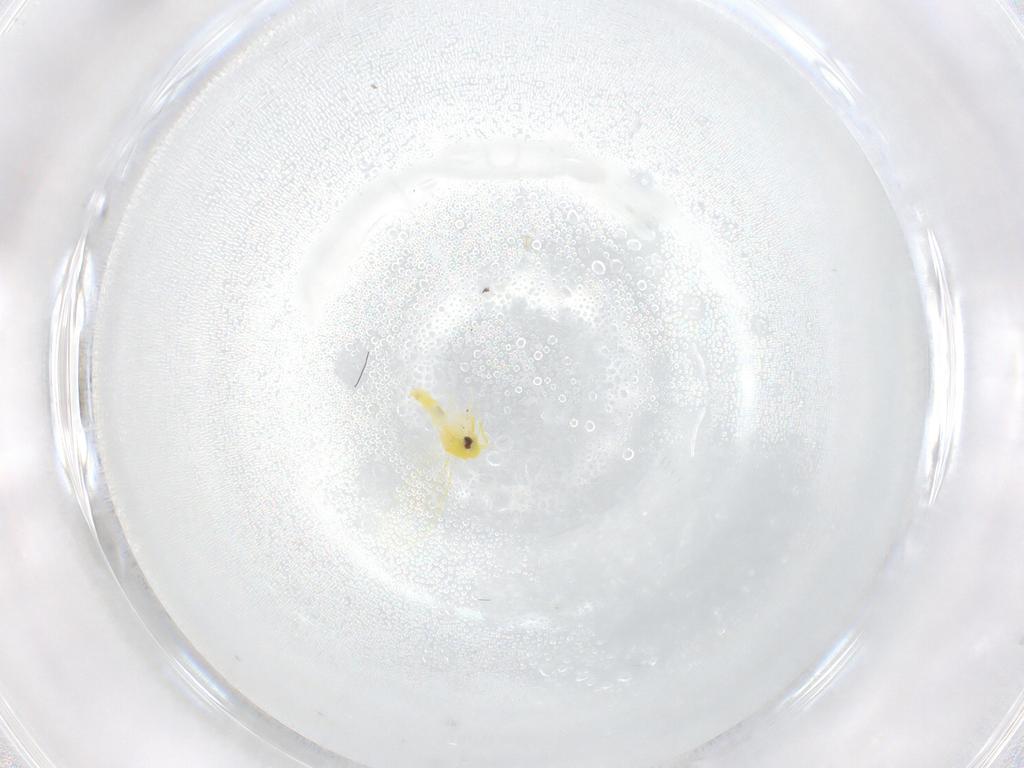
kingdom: Animalia
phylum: Arthropoda
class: Insecta
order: Hemiptera
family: Aleyrodidae
